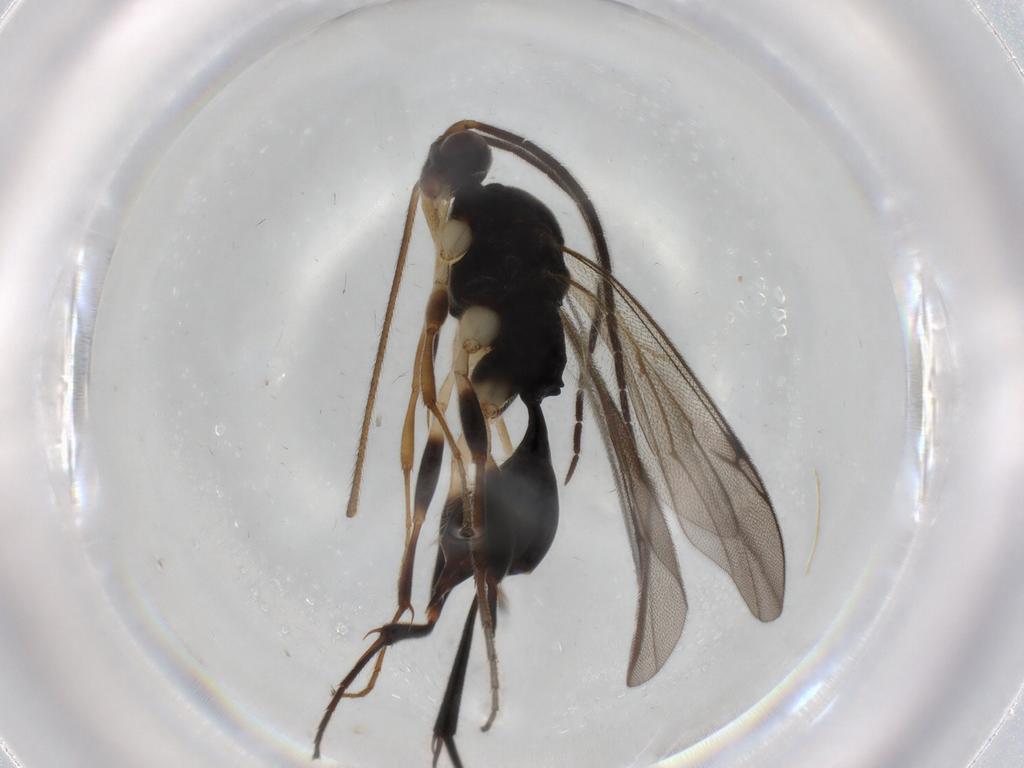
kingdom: Animalia
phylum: Arthropoda
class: Insecta
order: Hymenoptera
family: Proctotrupidae
